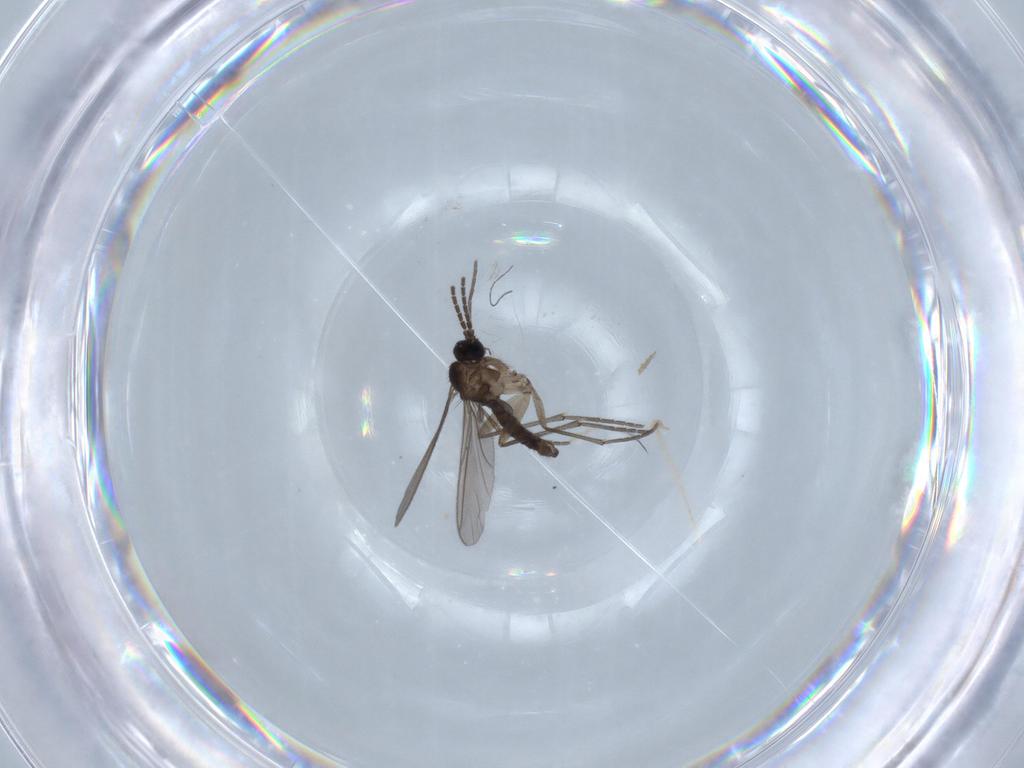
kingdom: Animalia
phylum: Arthropoda
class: Insecta
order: Diptera
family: Sciaridae
